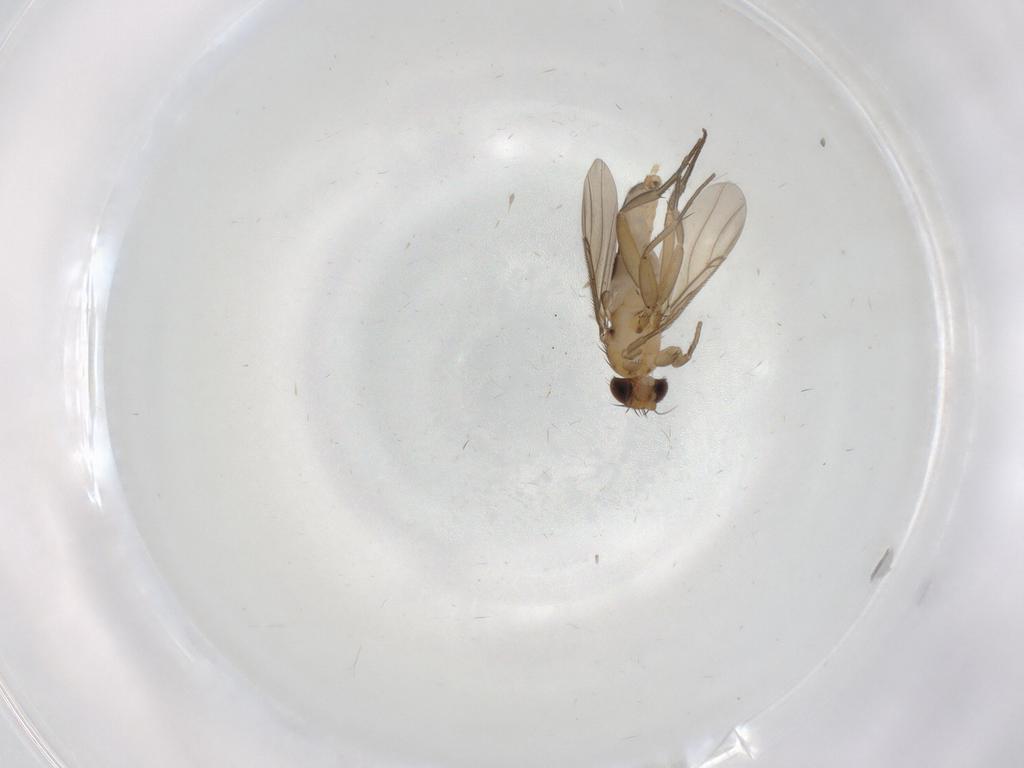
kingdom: Animalia
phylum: Arthropoda
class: Insecta
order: Diptera
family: Phoridae
